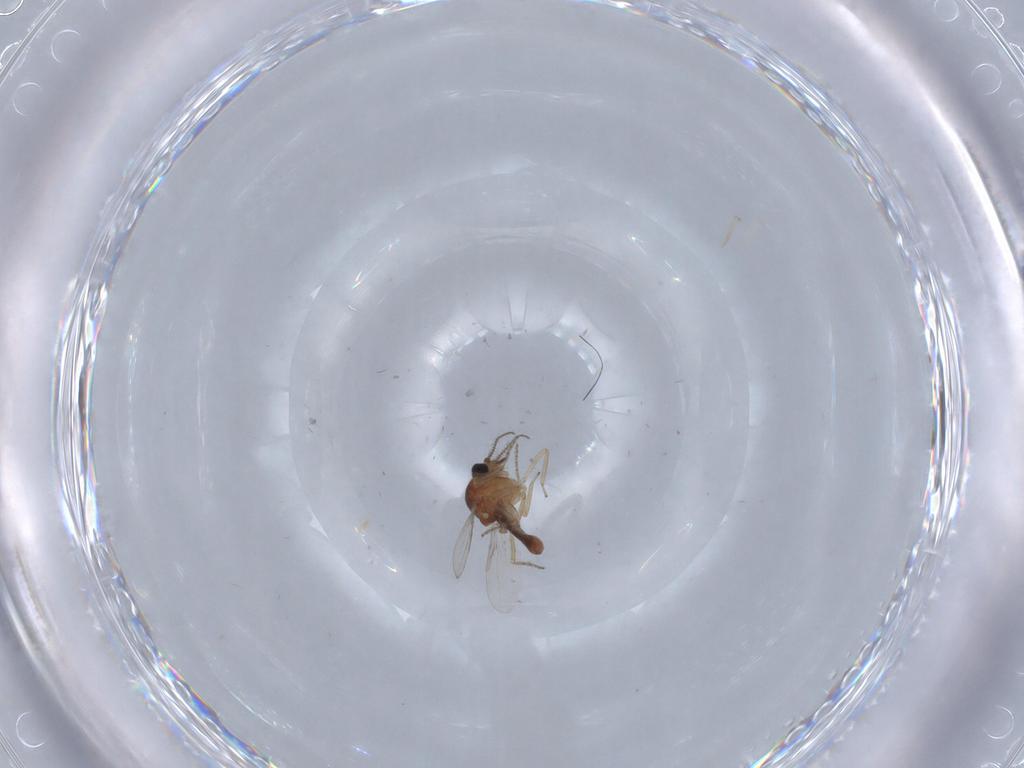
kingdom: Animalia
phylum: Arthropoda
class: Insecta
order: Diptera
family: Ceratopogonidae
